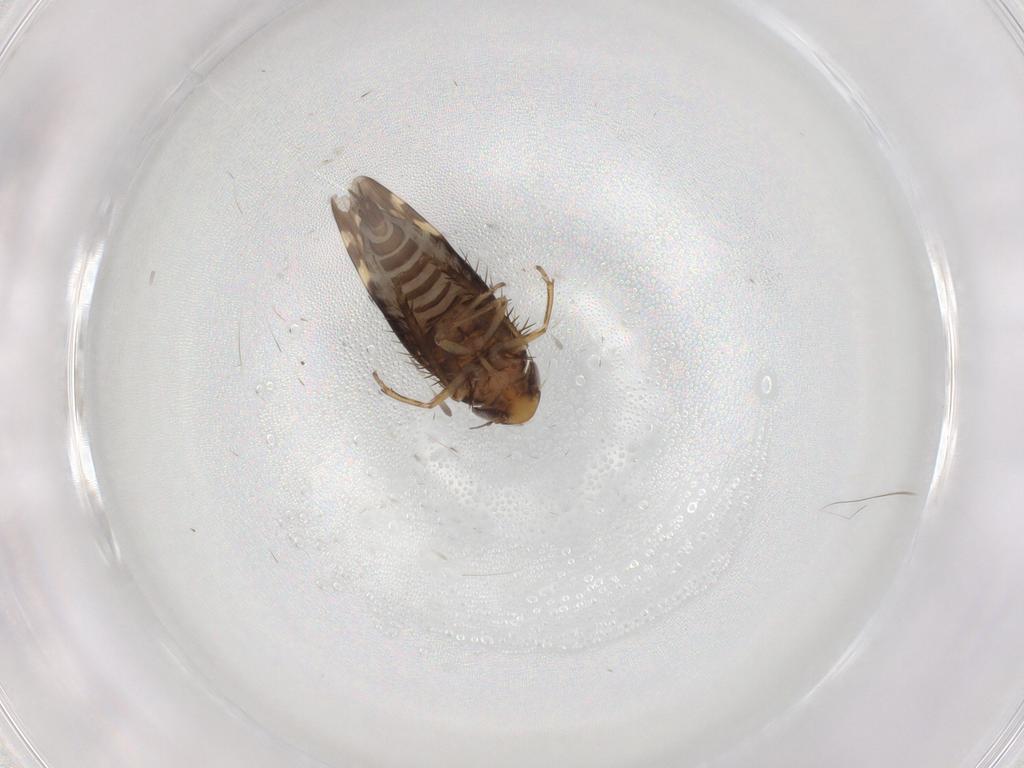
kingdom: Animalia
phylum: Arthropoda
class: Insecta
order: Hemiptera
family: Cicadellidae
